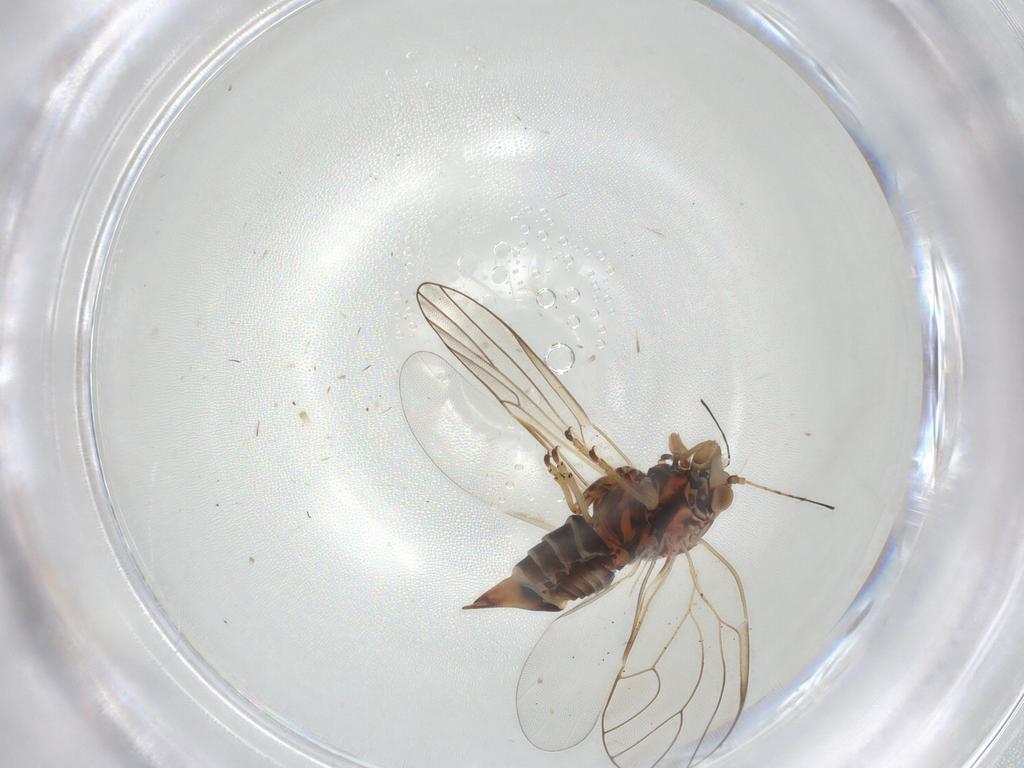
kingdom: Animalia
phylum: Arthropoda
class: Insecta
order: Hemiptera
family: Psyllidae
